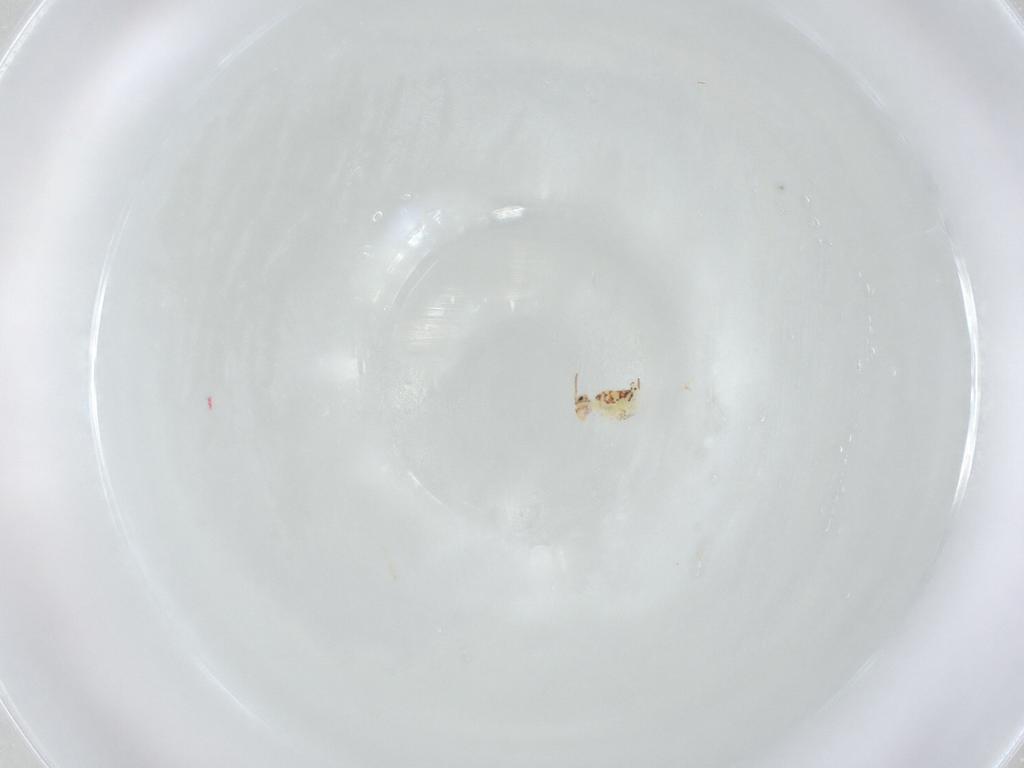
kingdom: Animalia
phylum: Arthropoda
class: Collembola
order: Symphypleona
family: Bourletiellidae
